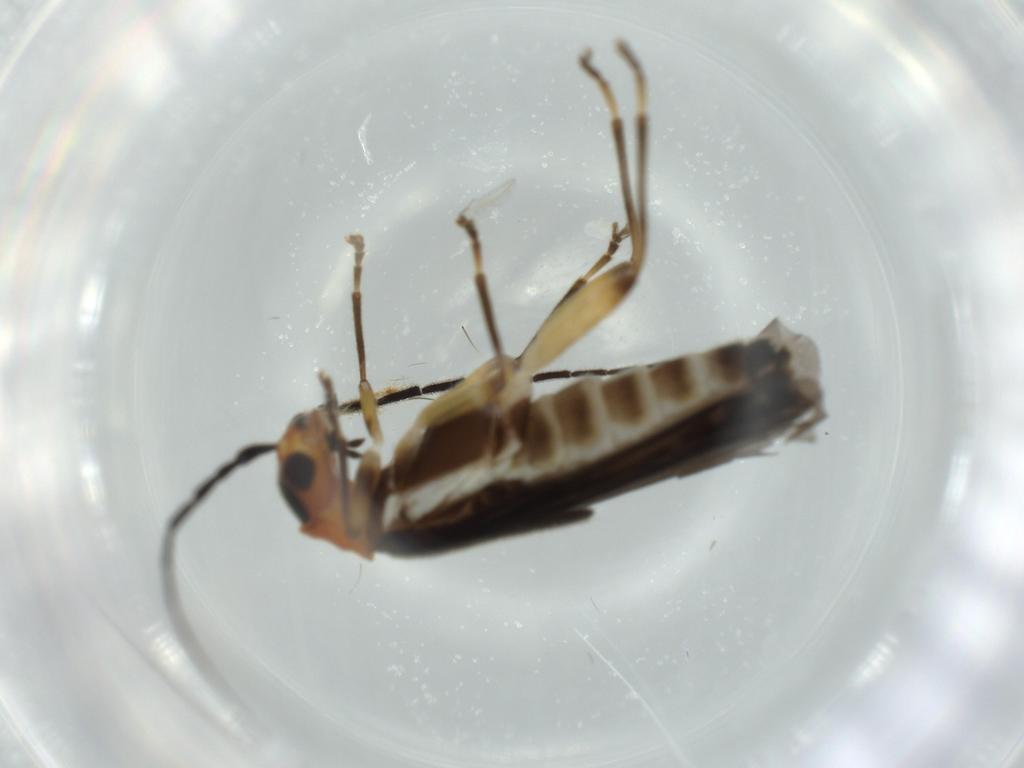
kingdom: Animalia
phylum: Arthropoda
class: Insecta
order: Coleoptera
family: Cantharidae
